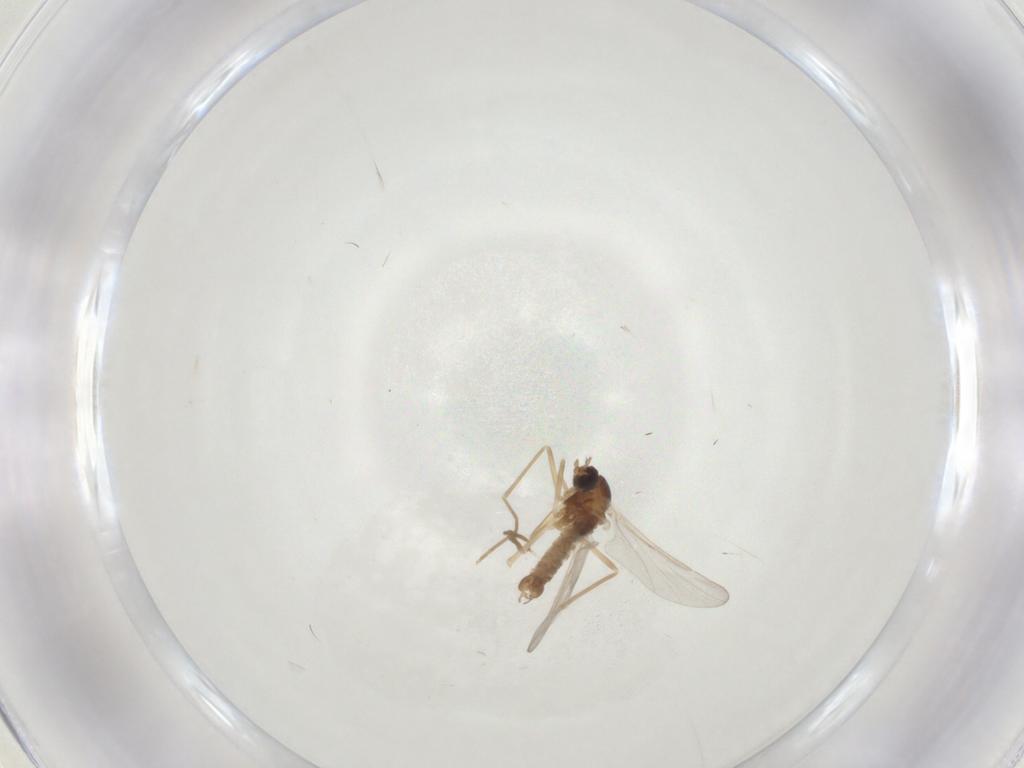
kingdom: Animalia
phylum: Arthropoda
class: Insecta
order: Diptera
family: Cecidomyiidae
